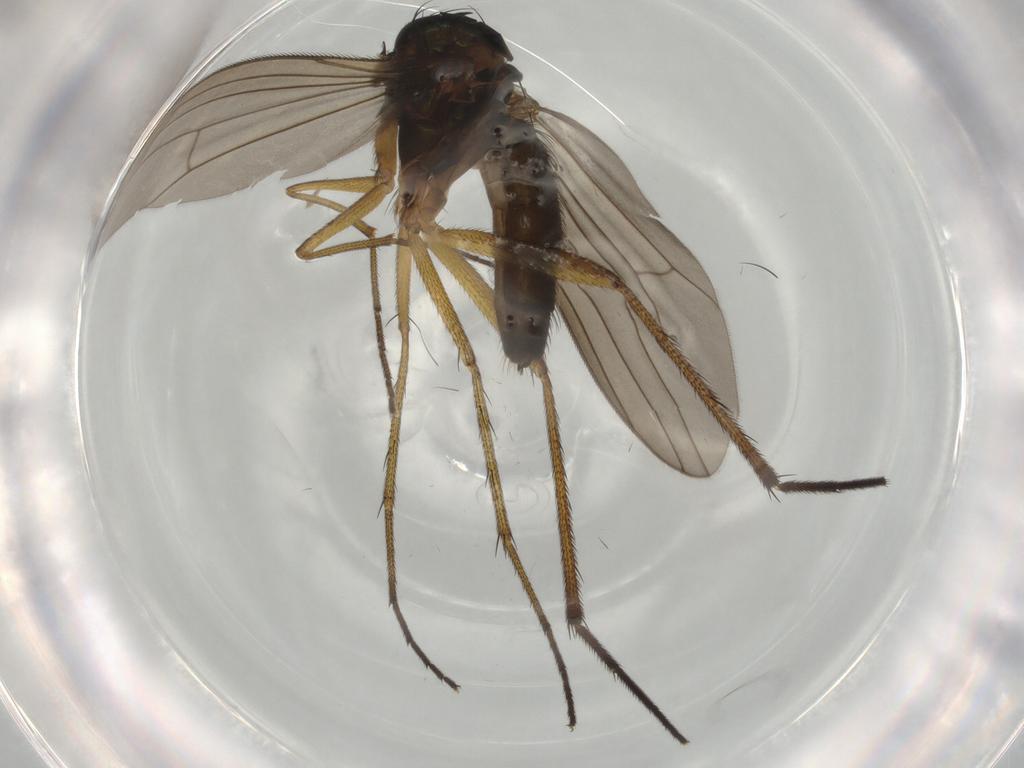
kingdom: Animalia
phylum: Arthropoda
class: Insecta
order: Diptera
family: Dolichopodidae
